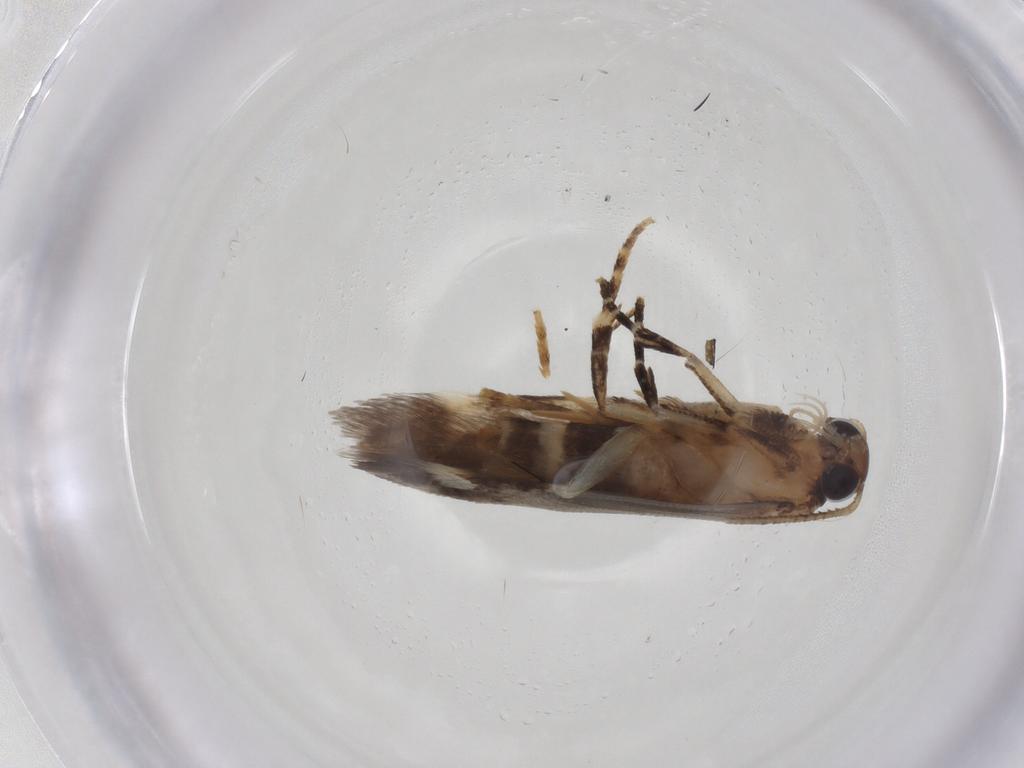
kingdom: Animalia
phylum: Arthropoda
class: Insecta
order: Lepidoptera
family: Gelechiidae
